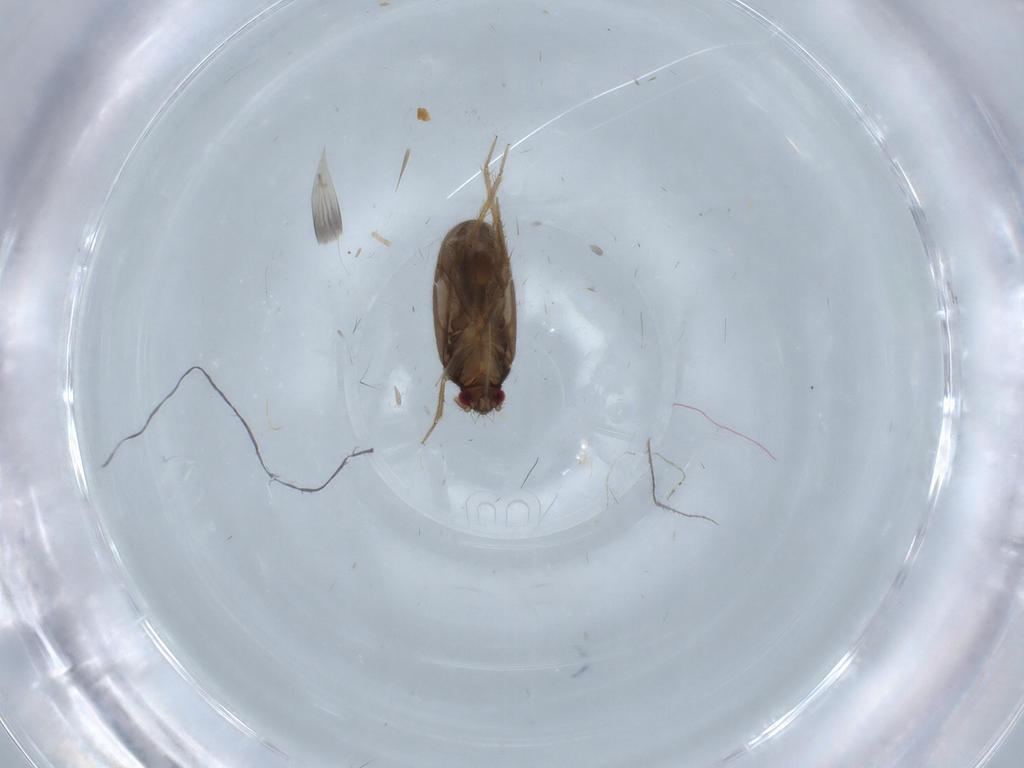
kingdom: Animalia
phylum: Arthropoda
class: Insecta
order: Hemiptera
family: Ceratocombidae
